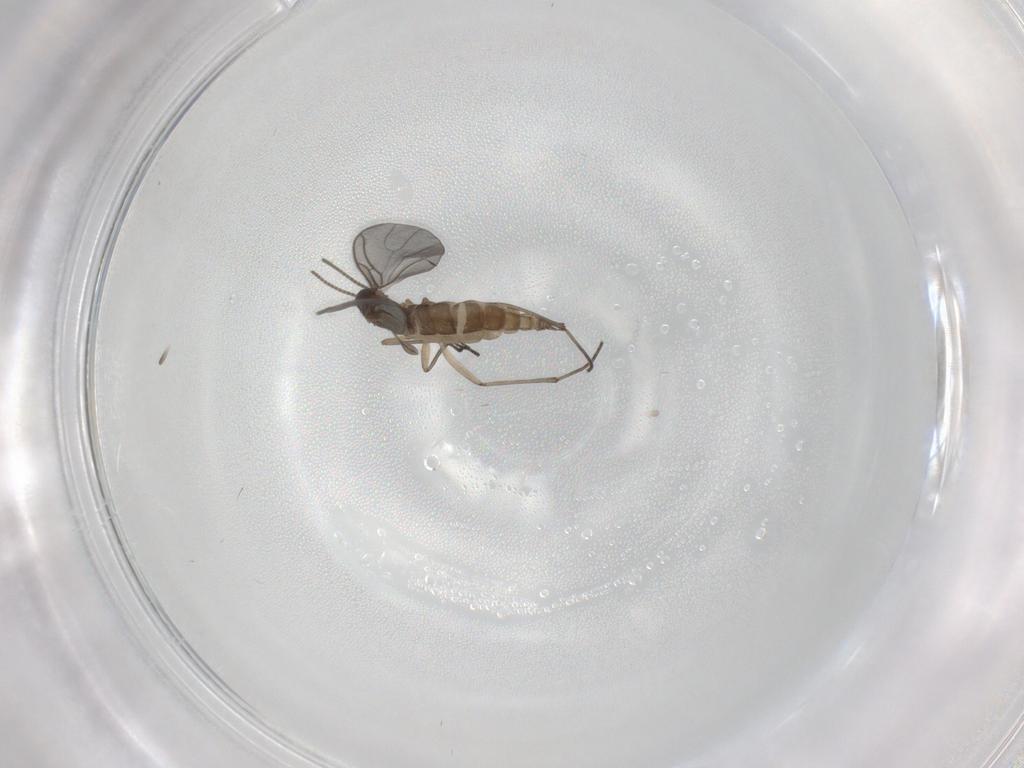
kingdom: Animalia
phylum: Arthropoda
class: Insecta
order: Diptera
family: Sciaridae
